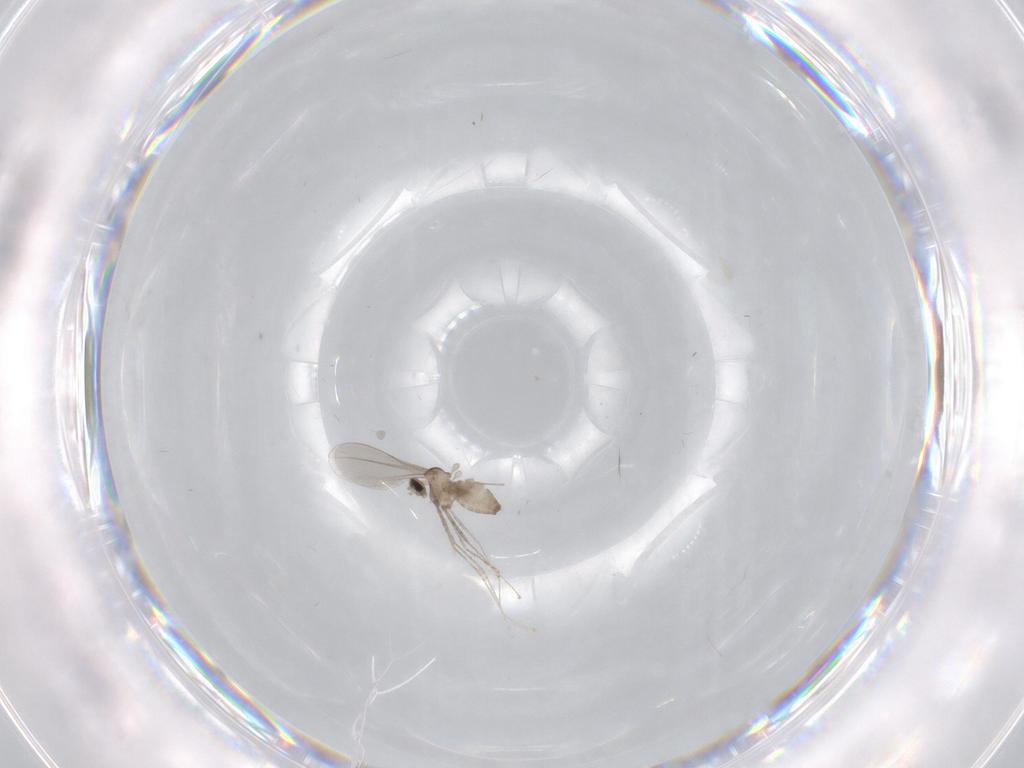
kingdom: Animalia
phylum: Arthropoda
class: Insecta
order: Diptera
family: Cecidomyiidae
